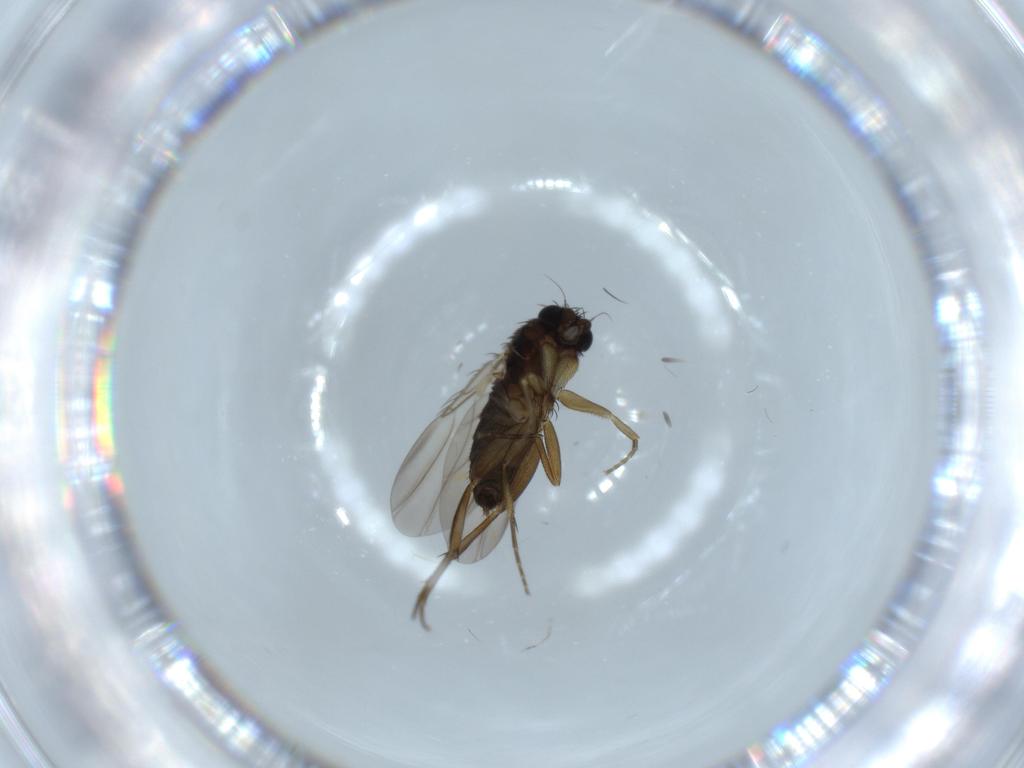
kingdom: Animalia
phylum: Arthropoda
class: Insecta
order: Diptera
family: Phoridae
